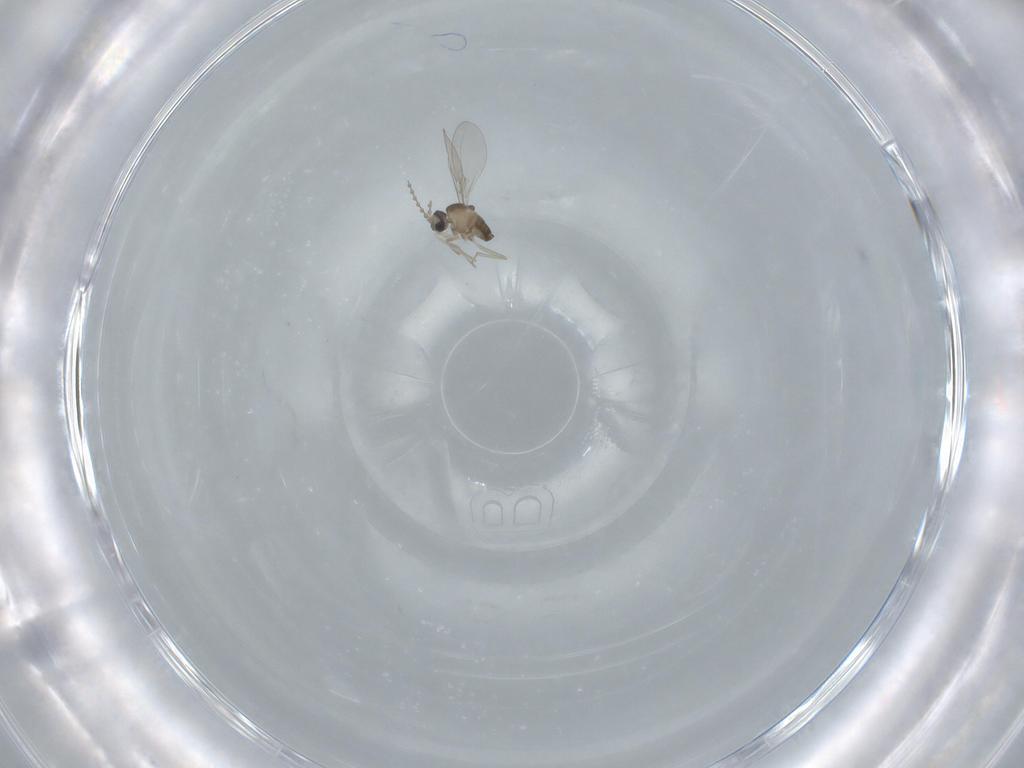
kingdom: Animalia
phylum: Arthropoda
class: Insecta
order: Diptera
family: Cecidomyiidae
